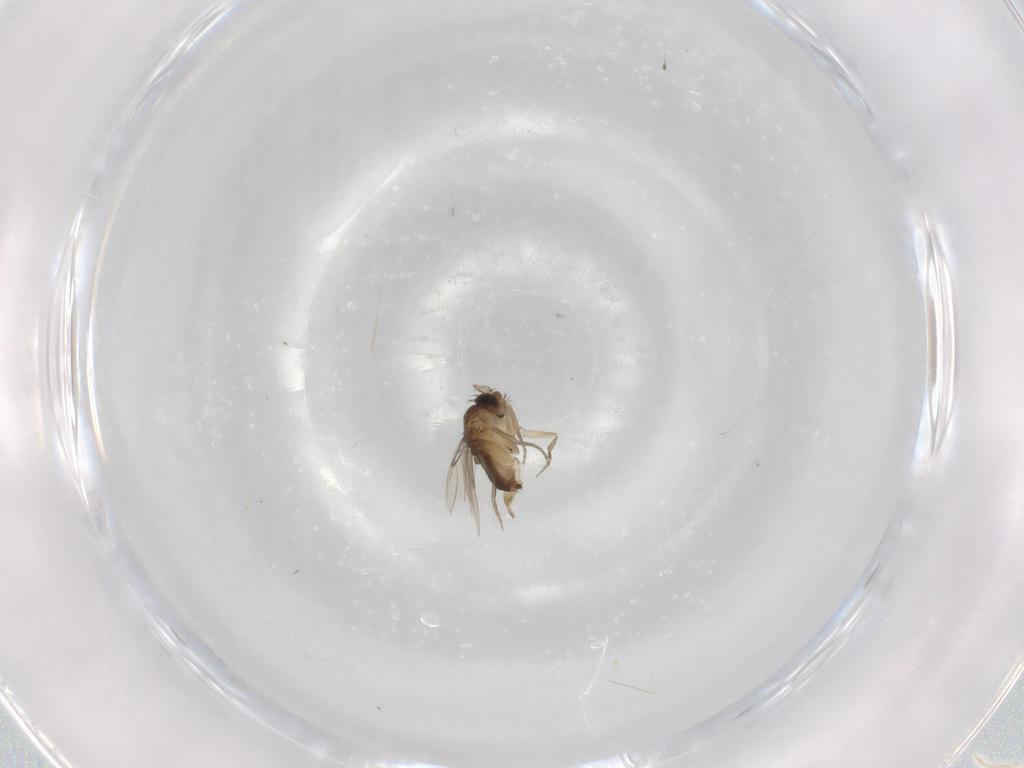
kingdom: Animalia
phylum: Arthropoda
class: Insecta
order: Diptera
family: Phoridae
